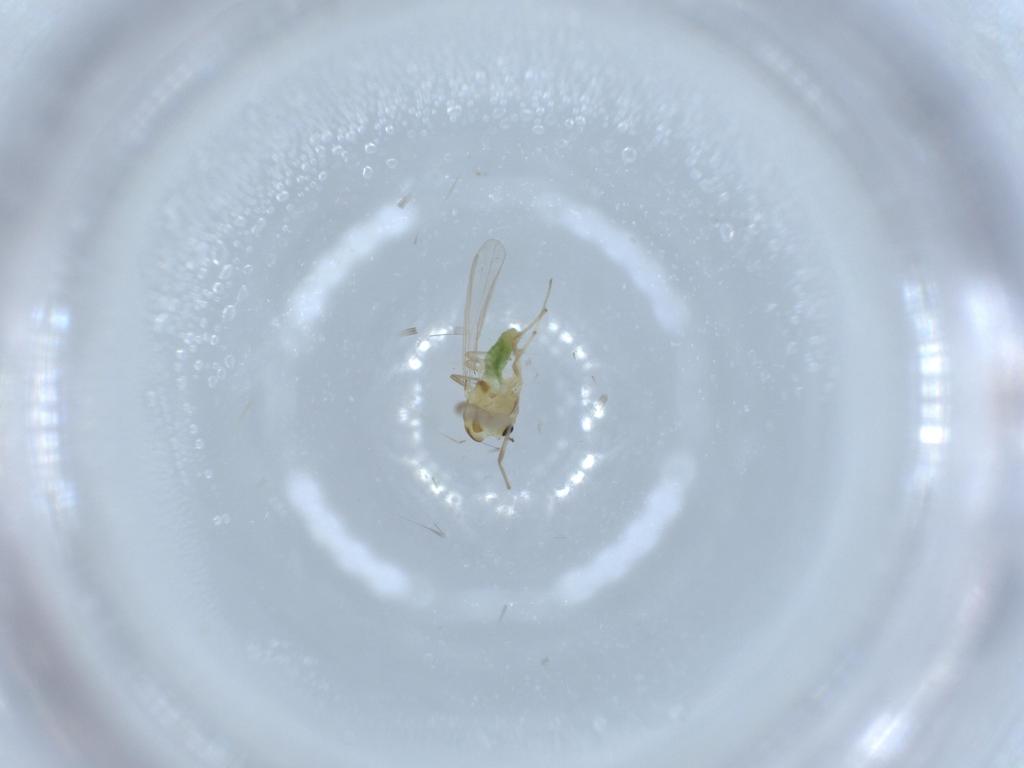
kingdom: Animalia
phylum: Arthropoda
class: Insecta
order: Diptera
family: Chironomidae
